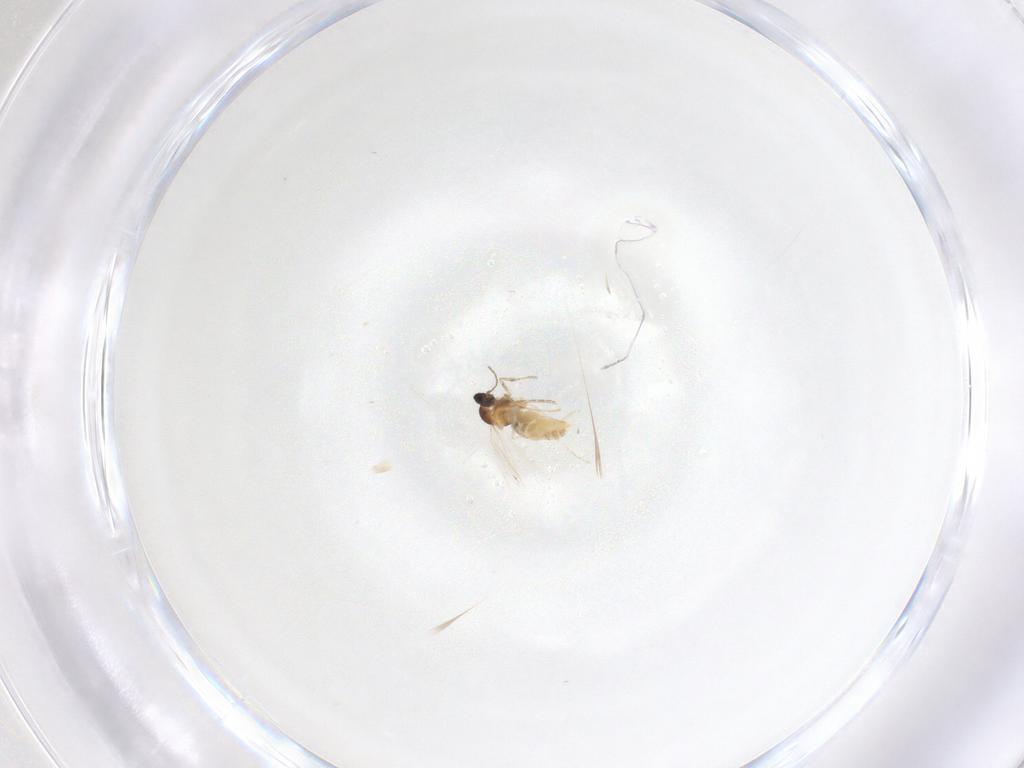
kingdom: Animalia
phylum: Arthropoda
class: Insecta
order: Diptera
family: Cecidomyiidae
